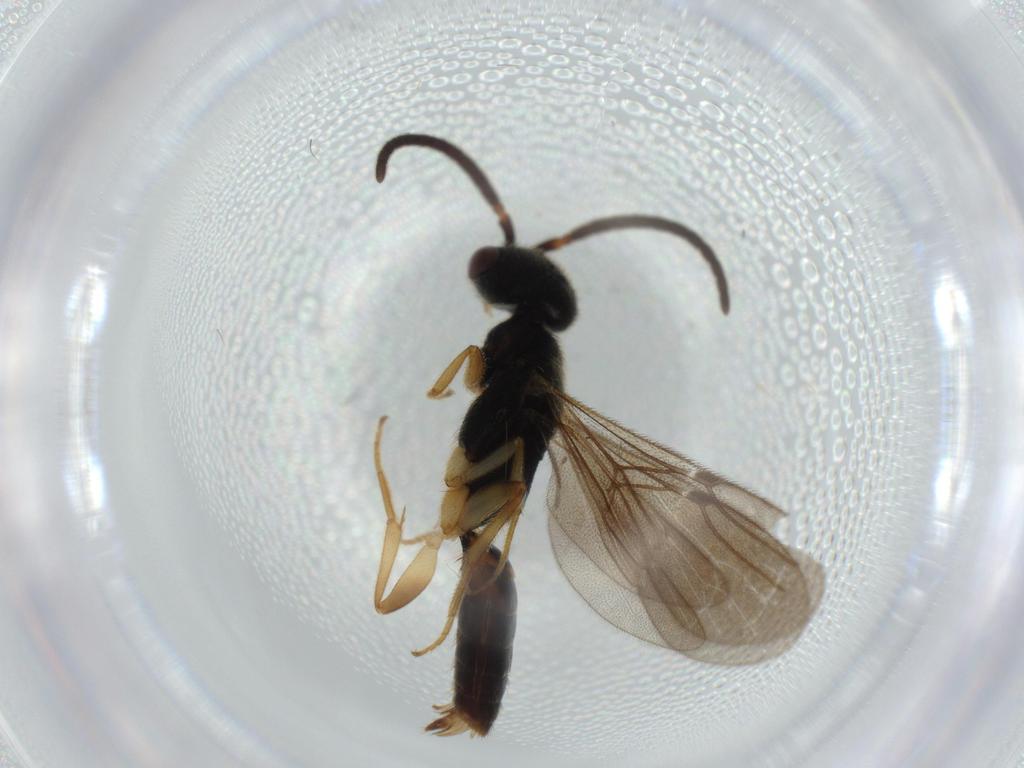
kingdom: Animalia
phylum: Arthropoda
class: Insecta
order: Hymenoptera
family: Bethylidae
